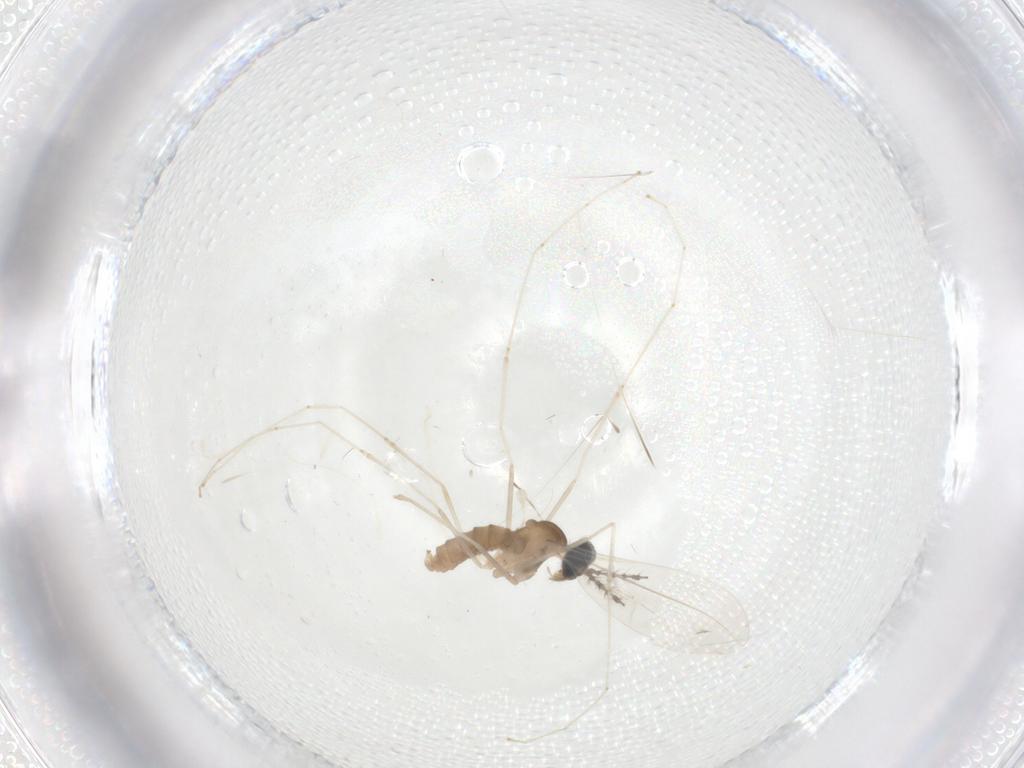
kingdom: Animalia
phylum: Arthropoda
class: Insecta
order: Diptera
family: Cecidomyiidae
